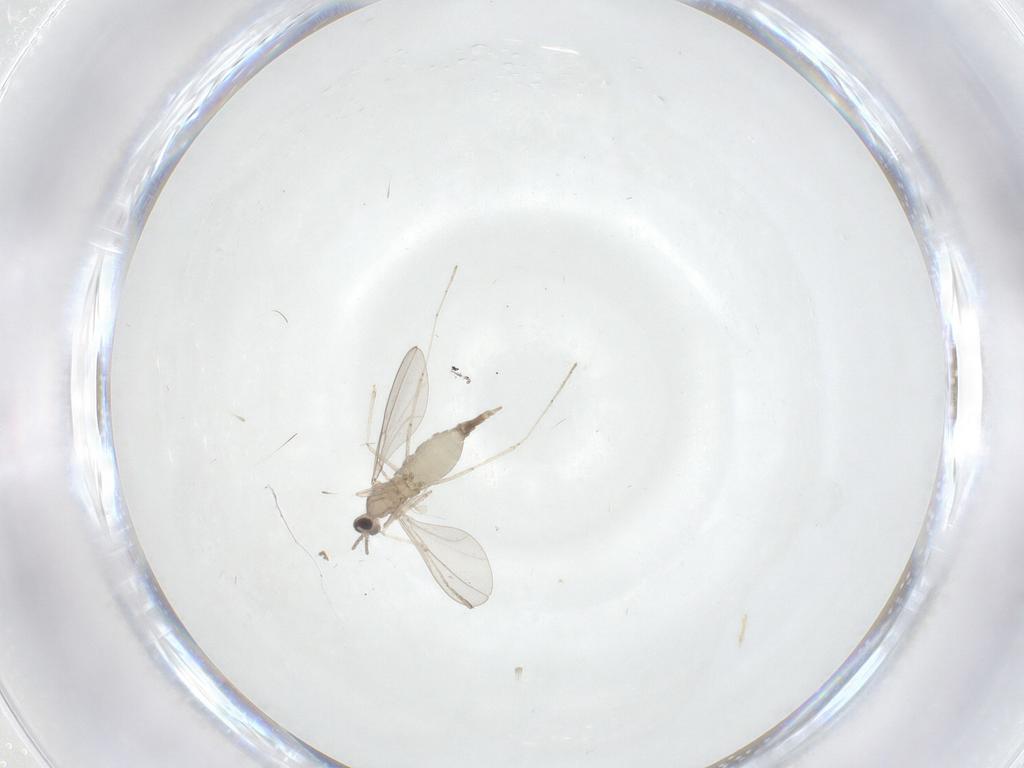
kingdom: Animalia
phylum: Arthropoda
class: Insecta
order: Diptera
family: Cecidomyiidae
